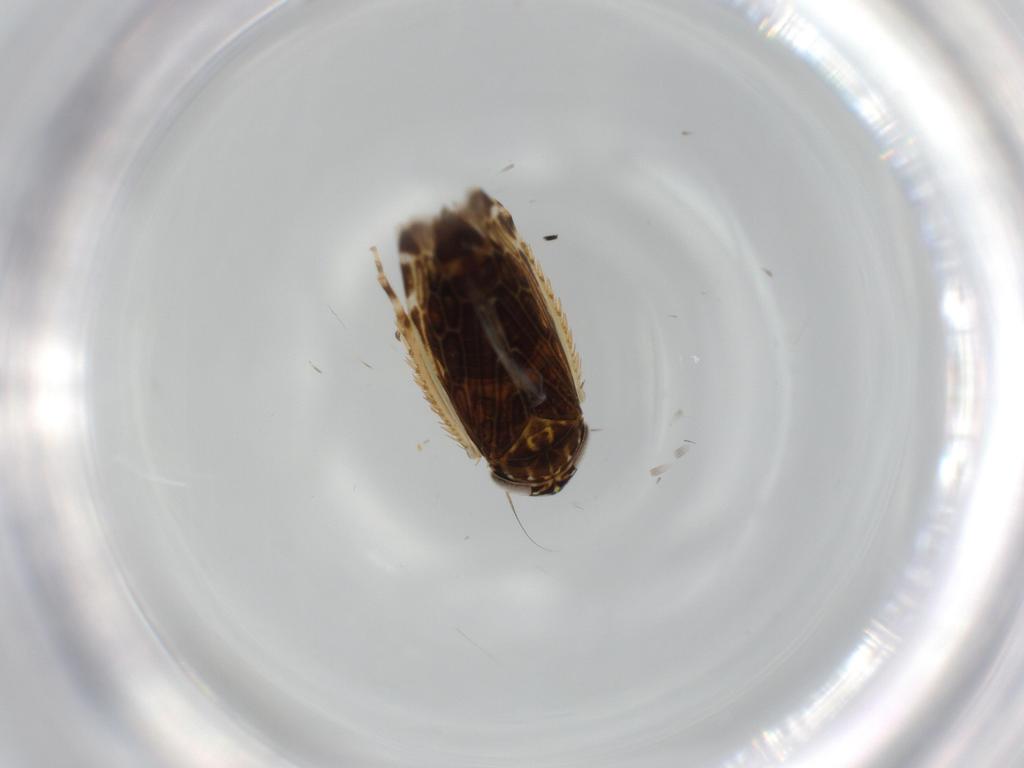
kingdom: Animalia
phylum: Arthropoda
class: Insecta
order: Hemiptera
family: Cicadellidae
